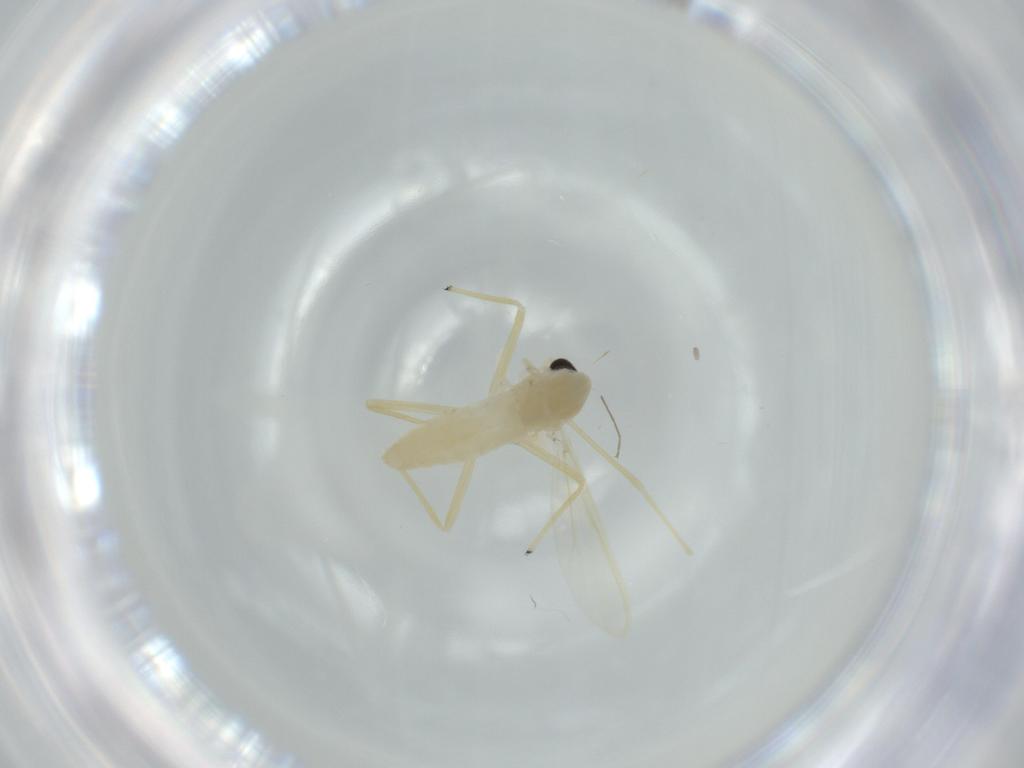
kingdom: Animalia
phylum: Arthropoda
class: Insecta
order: Diptera
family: Chironomidae
